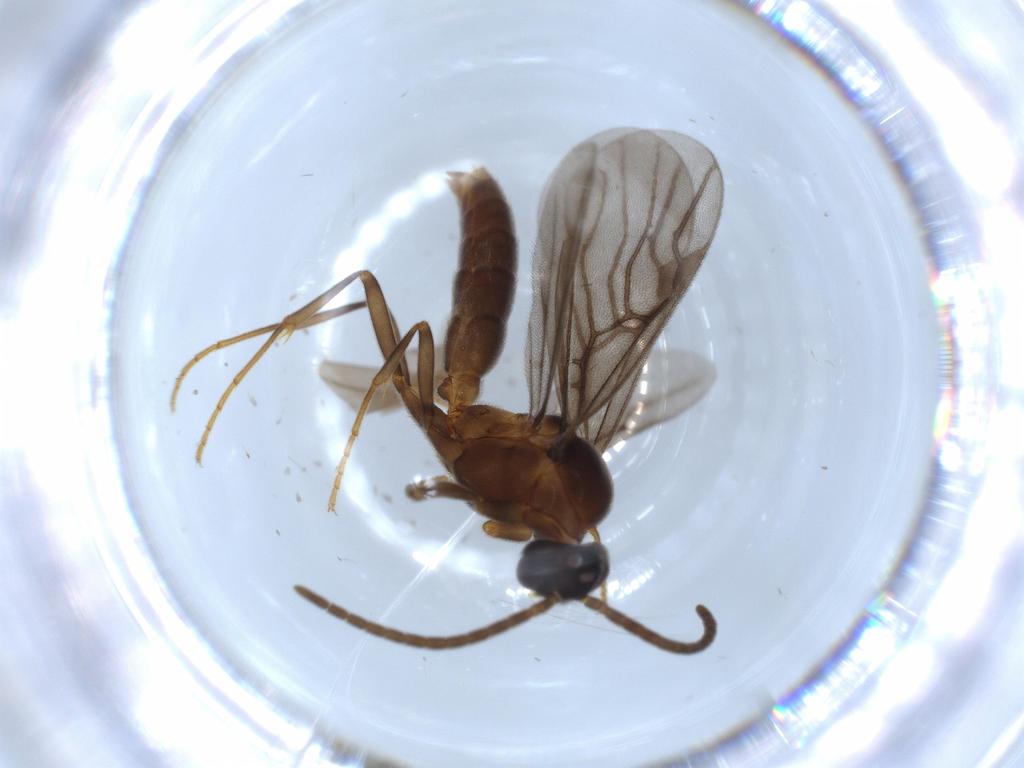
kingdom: Animalia
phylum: Arthropoda
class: Insecta
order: Hymenoptera
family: Formicidae
